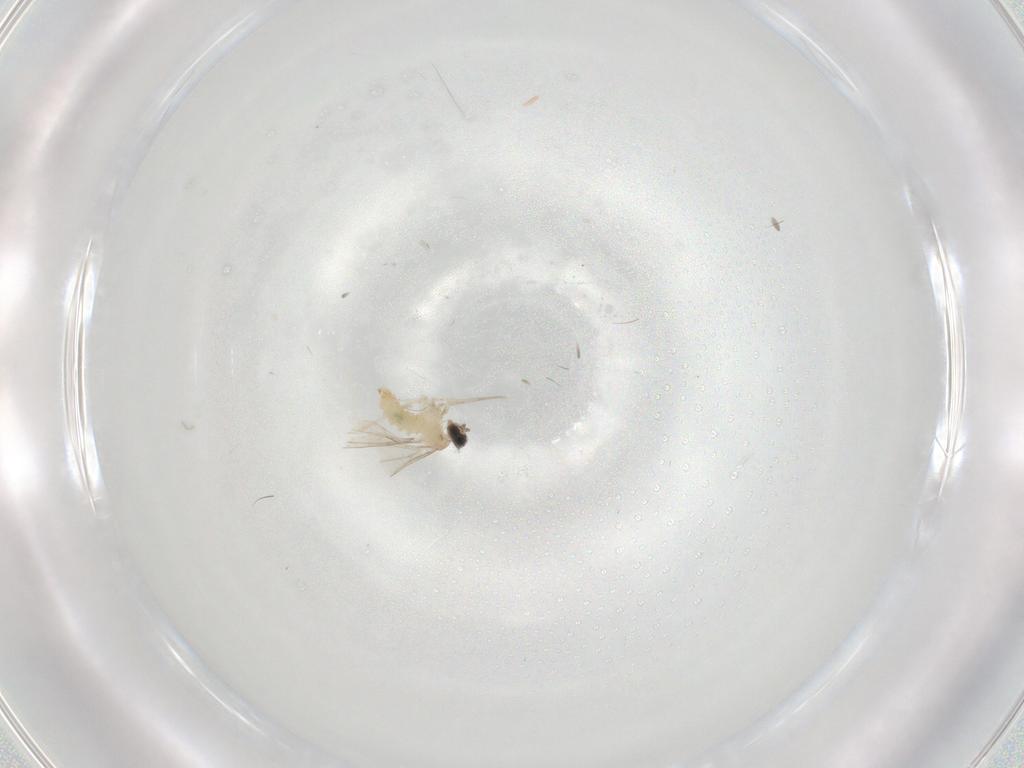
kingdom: Animalia
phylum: Arthropoda
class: Insecta
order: Diptera
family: Cecidomyiidae
